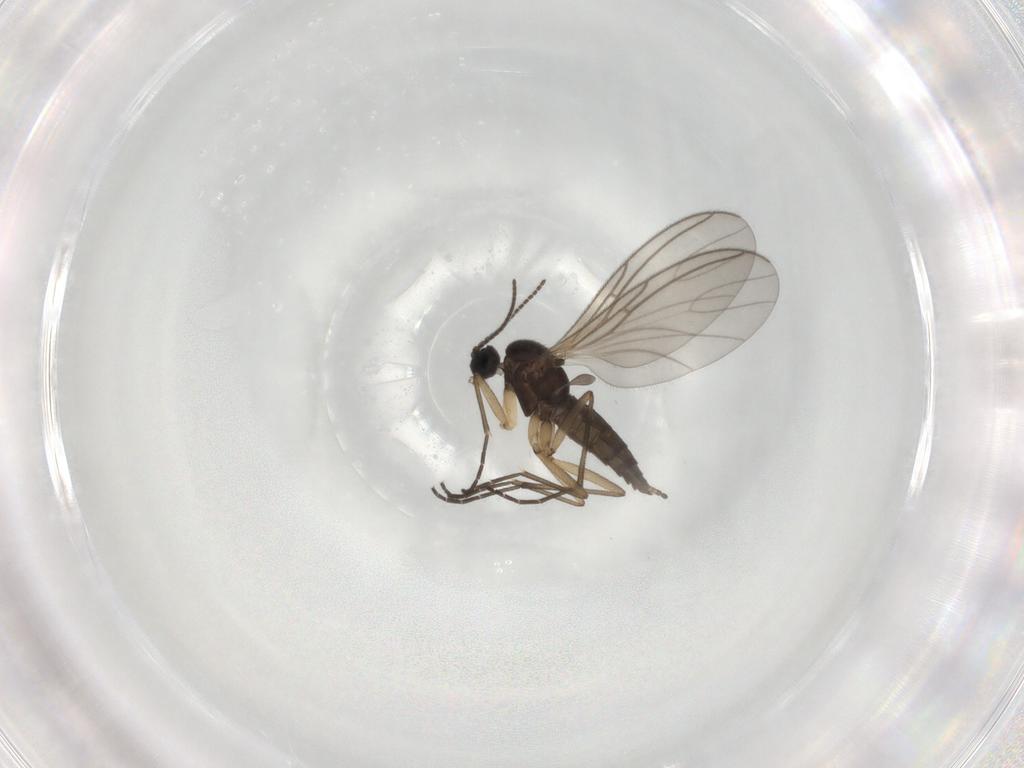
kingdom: Animalia
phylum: Arthropoda
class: Insecta
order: Diptera
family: Sciaridae
